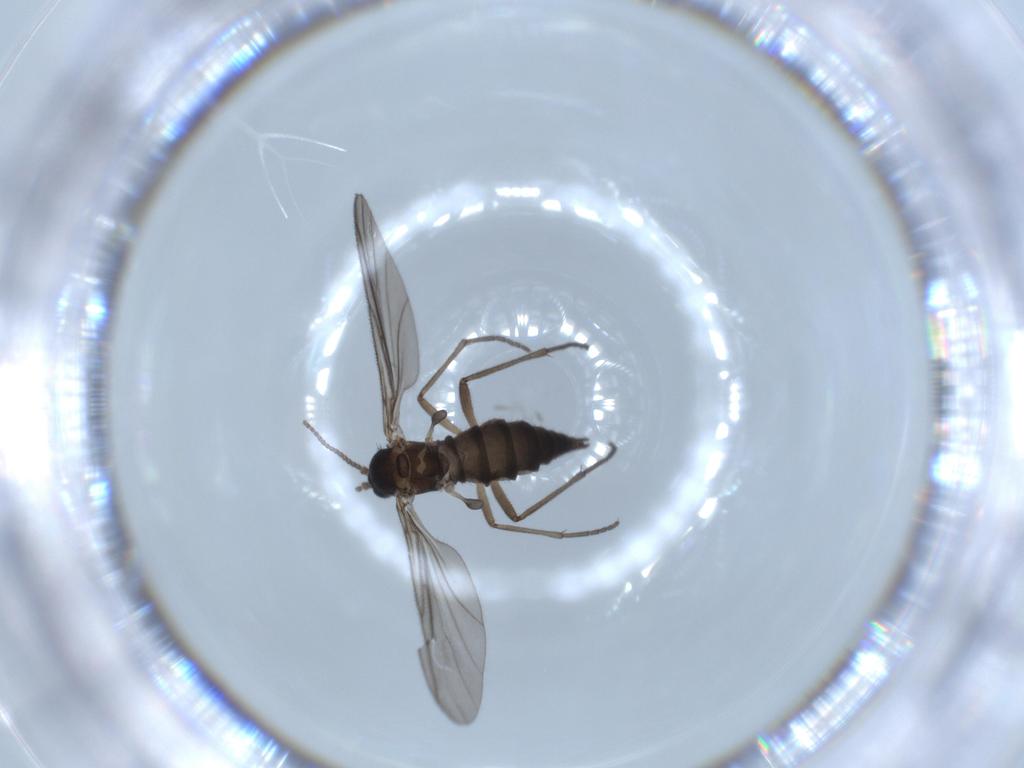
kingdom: Animalia
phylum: Arthropoda
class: Insecta
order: Diptera
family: Sciaridae
